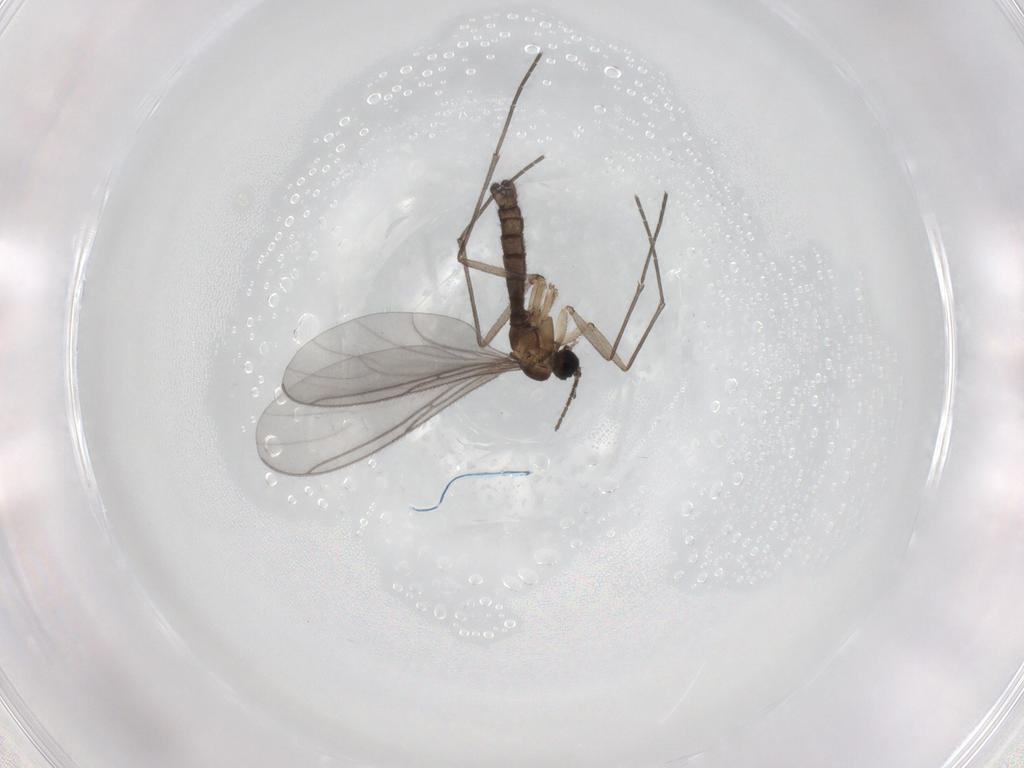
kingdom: Animalia
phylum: Arthropoda
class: Insecta
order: Diptera
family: Sciaridae
